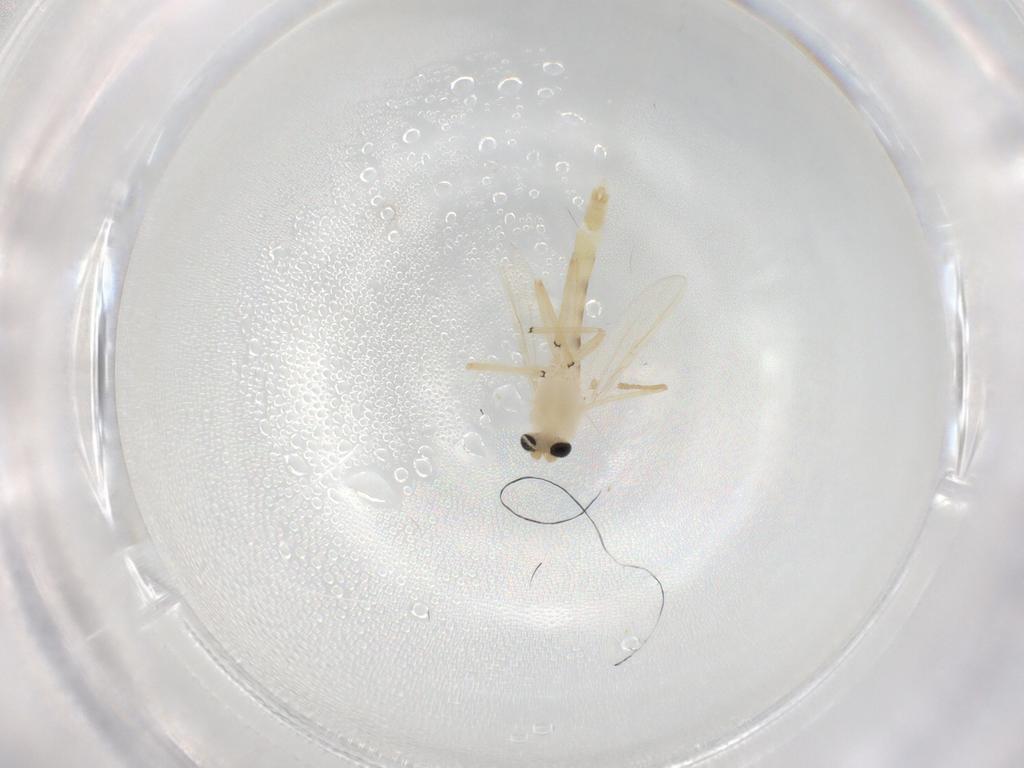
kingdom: Animalia
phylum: Arthropoda
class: Insecta
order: Diptera
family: Chironomidae
